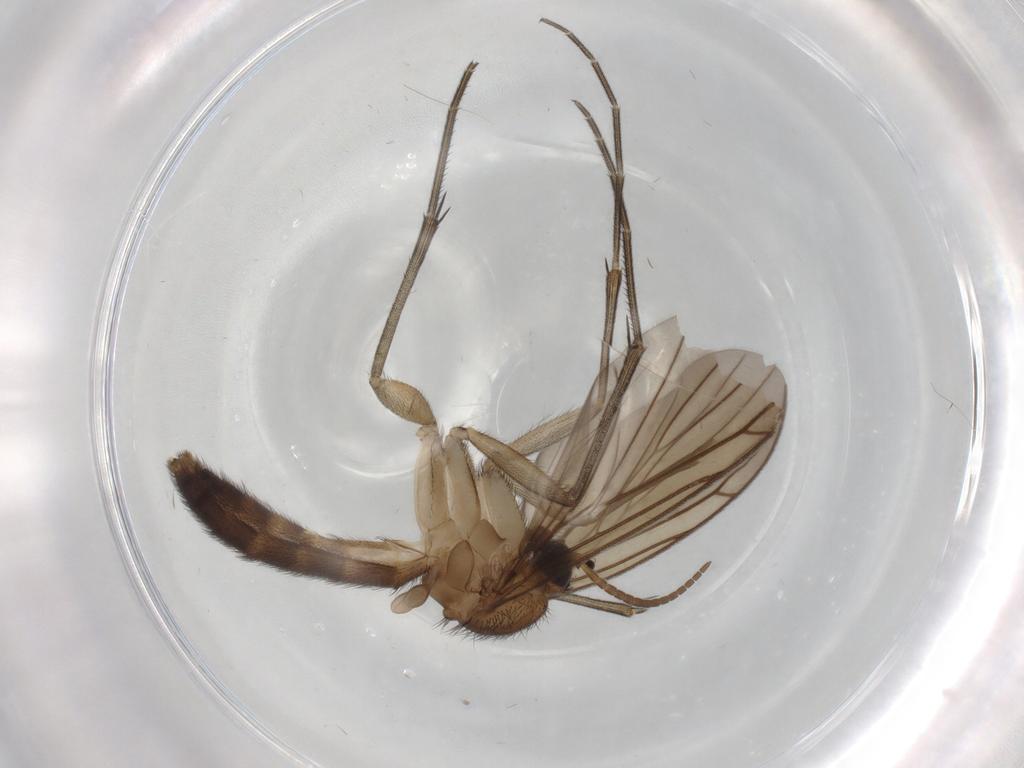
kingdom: Animalia
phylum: Arthropoda
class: Insecta
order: Diptera
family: Keroplatidae
